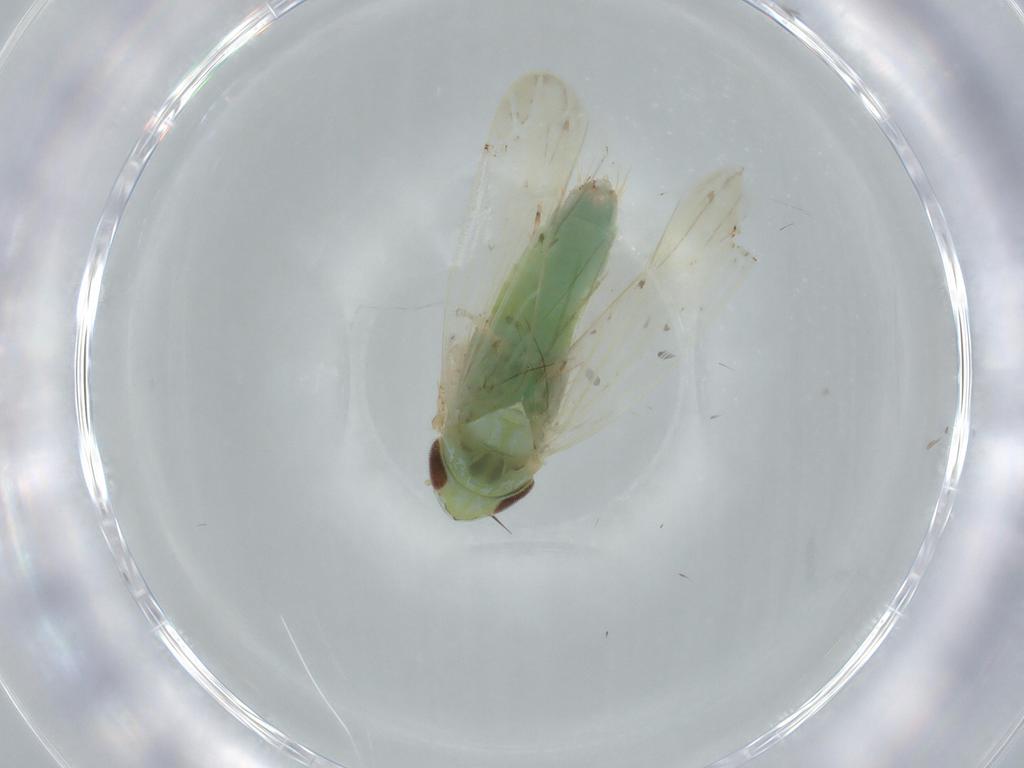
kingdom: Animalia
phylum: Arthropoda
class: Insecta
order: Hemiptera
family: Cicadellidae
